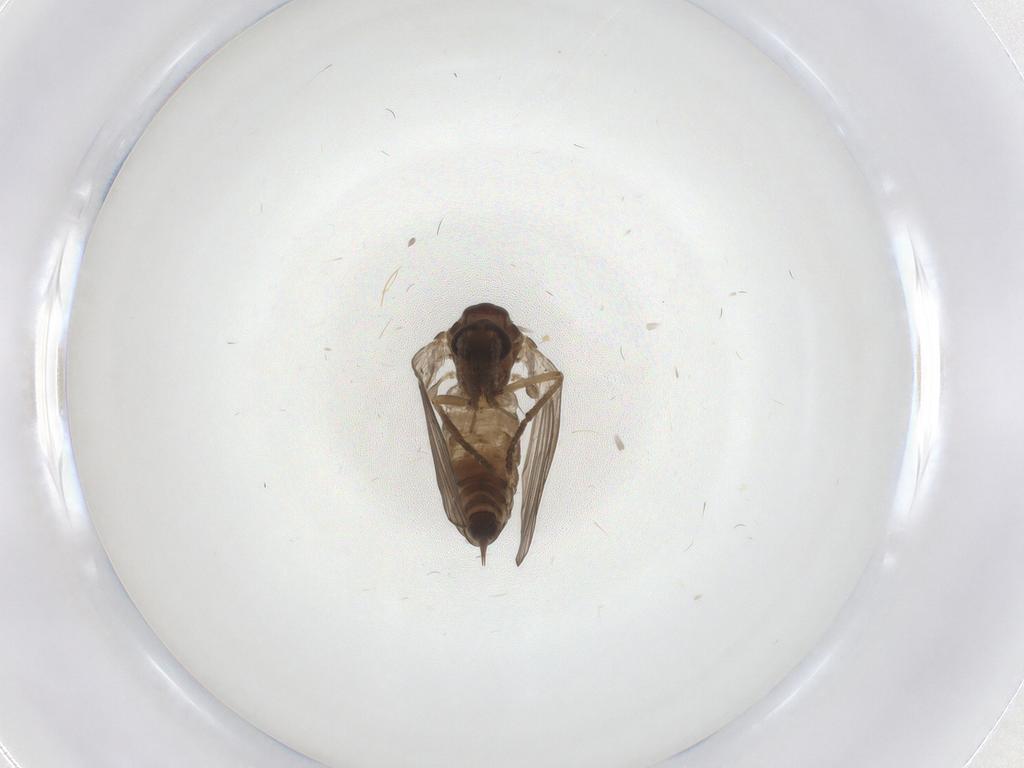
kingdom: Animalia
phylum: Arthropoda
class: Insecta
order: Diptera
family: Psychodidae
